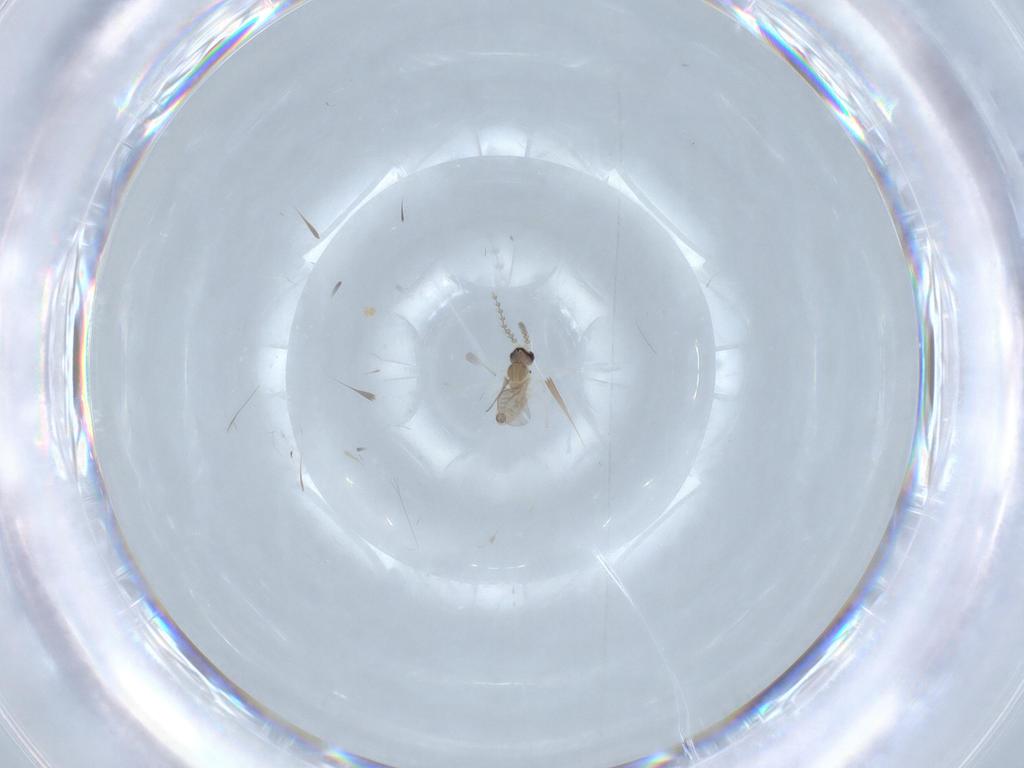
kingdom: Animalia
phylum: Arthropoda
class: Insecta
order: Diptera
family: Cecidomyiidae
